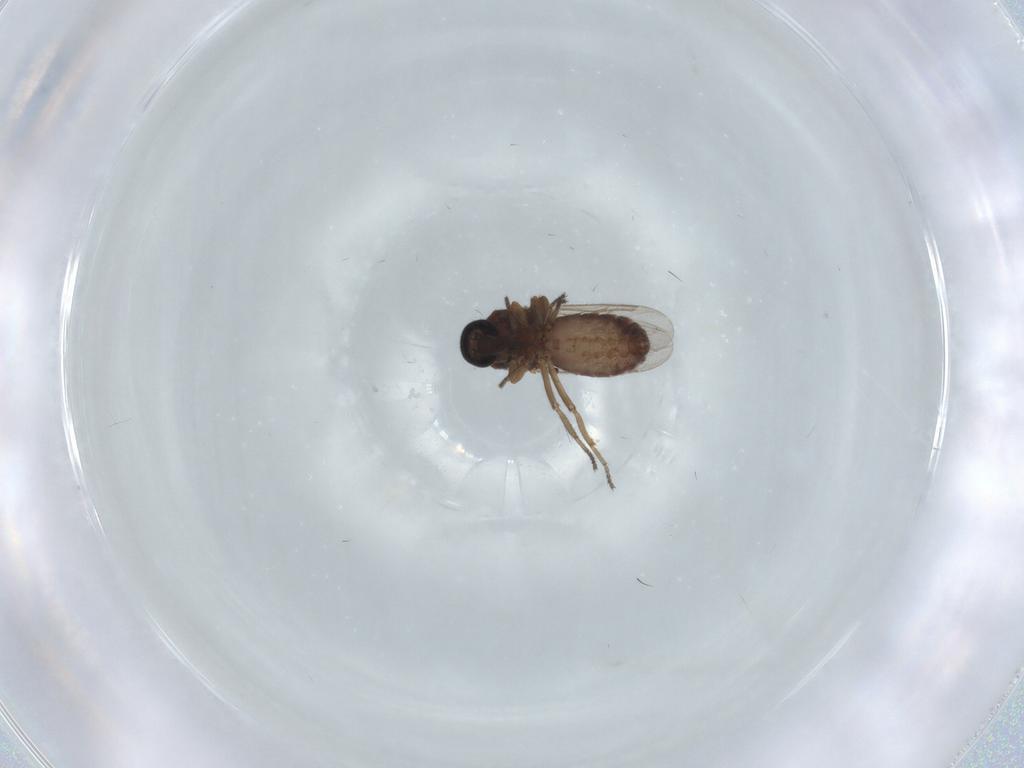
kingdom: Animalia
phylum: Arthropoda
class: Insecta
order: Diptera
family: Ceratopogonidae
